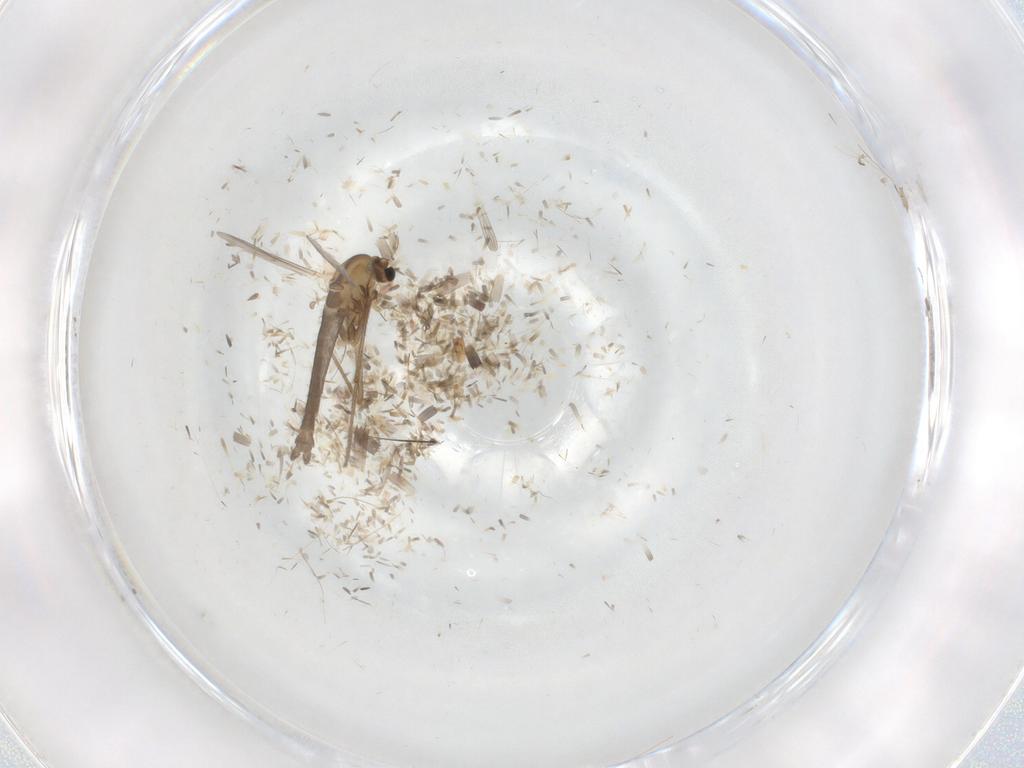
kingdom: Animalia
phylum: Arthropoda
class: Insecta
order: Diptera
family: Chironomidae
